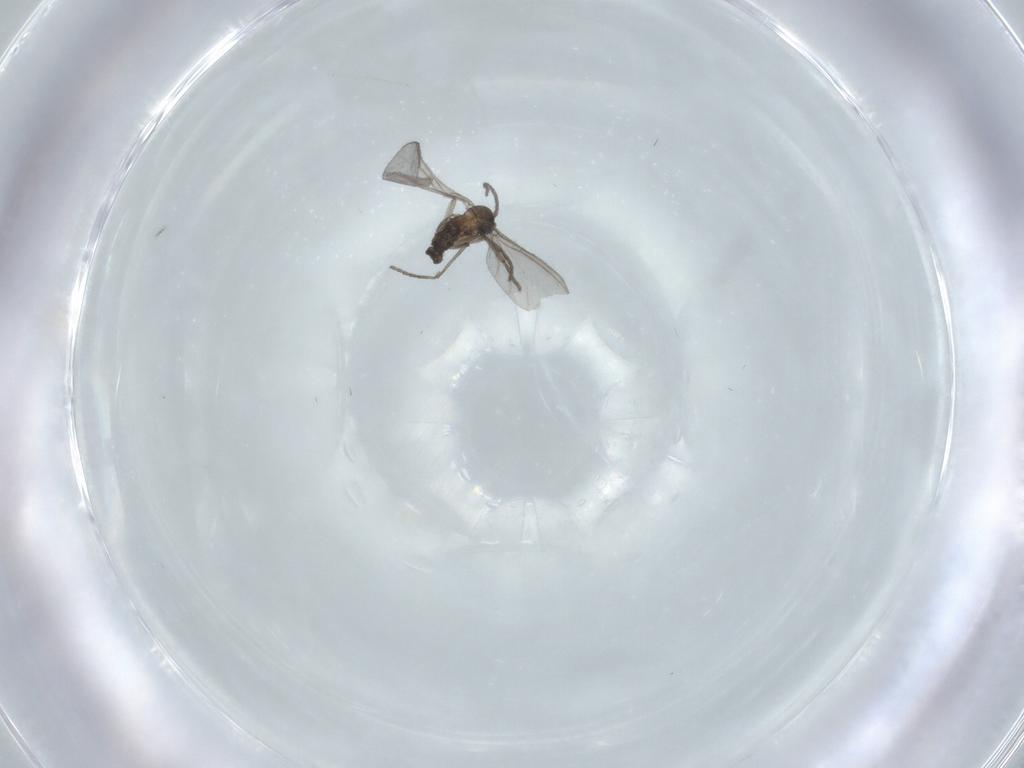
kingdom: Animalia
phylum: Arthropoda
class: Insecta
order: Diptera
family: Sciaridae
